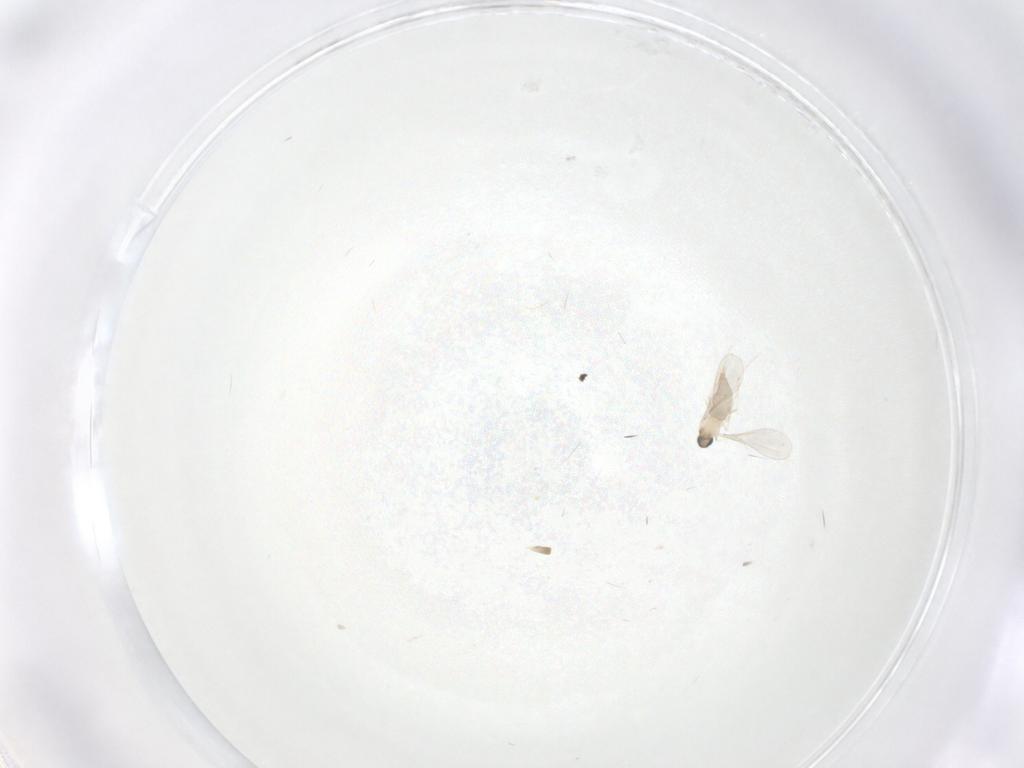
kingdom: Animalia
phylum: Arthropoda
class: Insecta
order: Diptera
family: Cecidomyiidae
